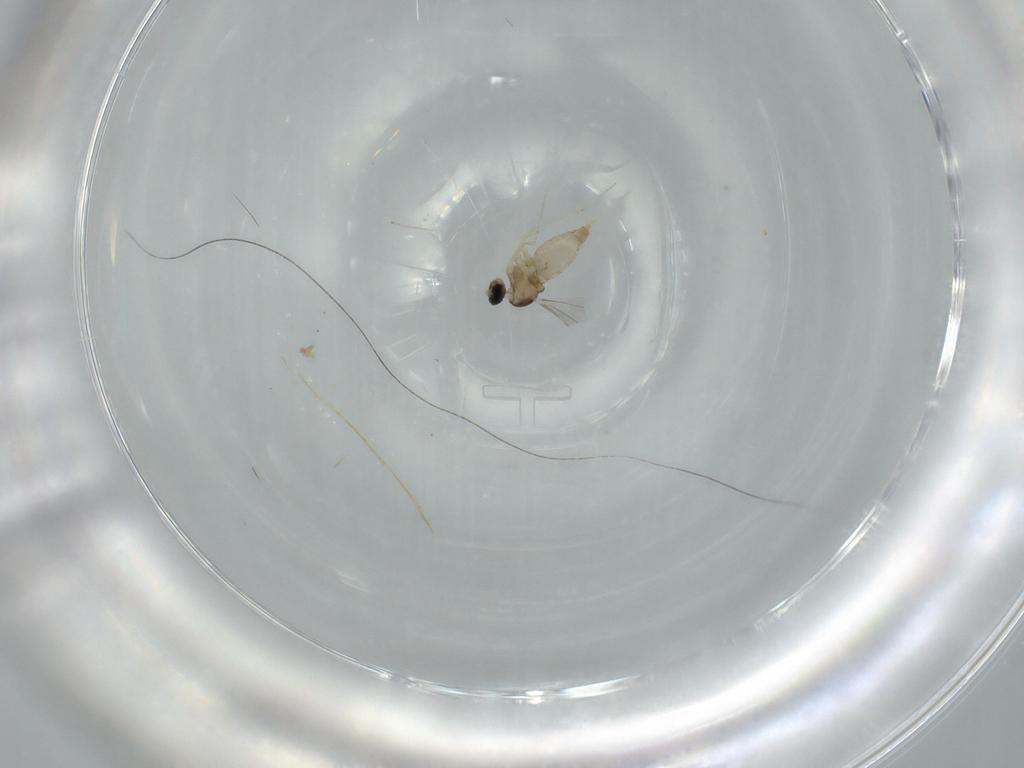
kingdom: Animalia
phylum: Arthropoda
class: Insecta
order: Diptera
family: Cecidomyiidae
